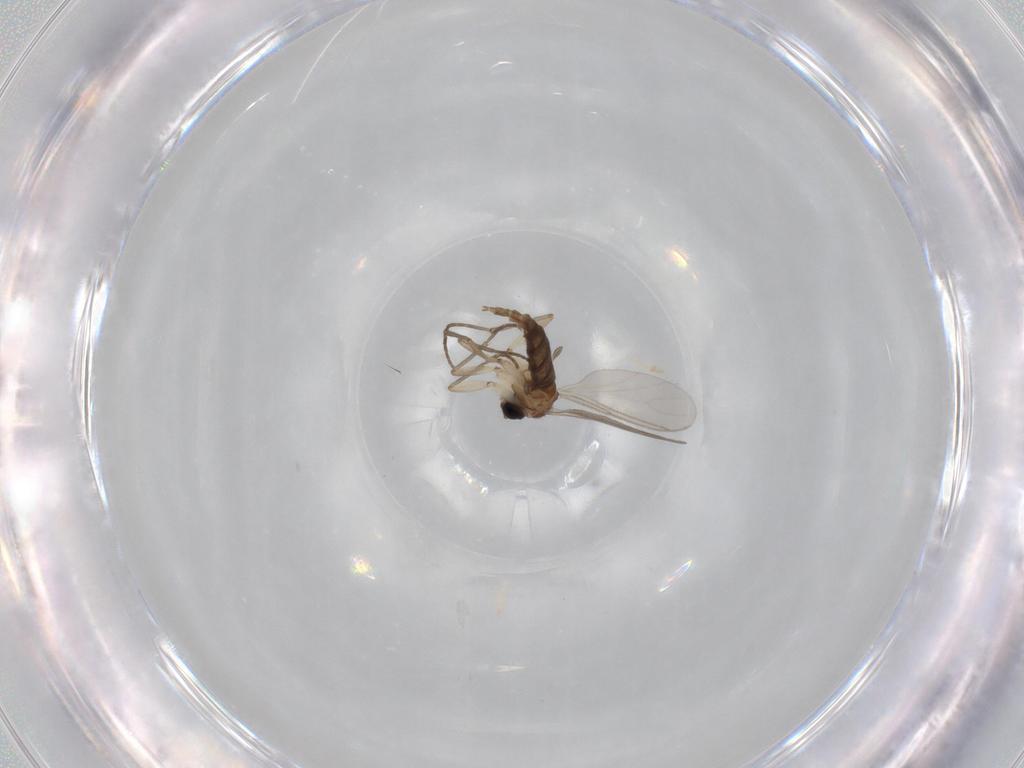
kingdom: Animalia
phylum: Arthropoda
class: Insecta
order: Diptera
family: Sciaridae
